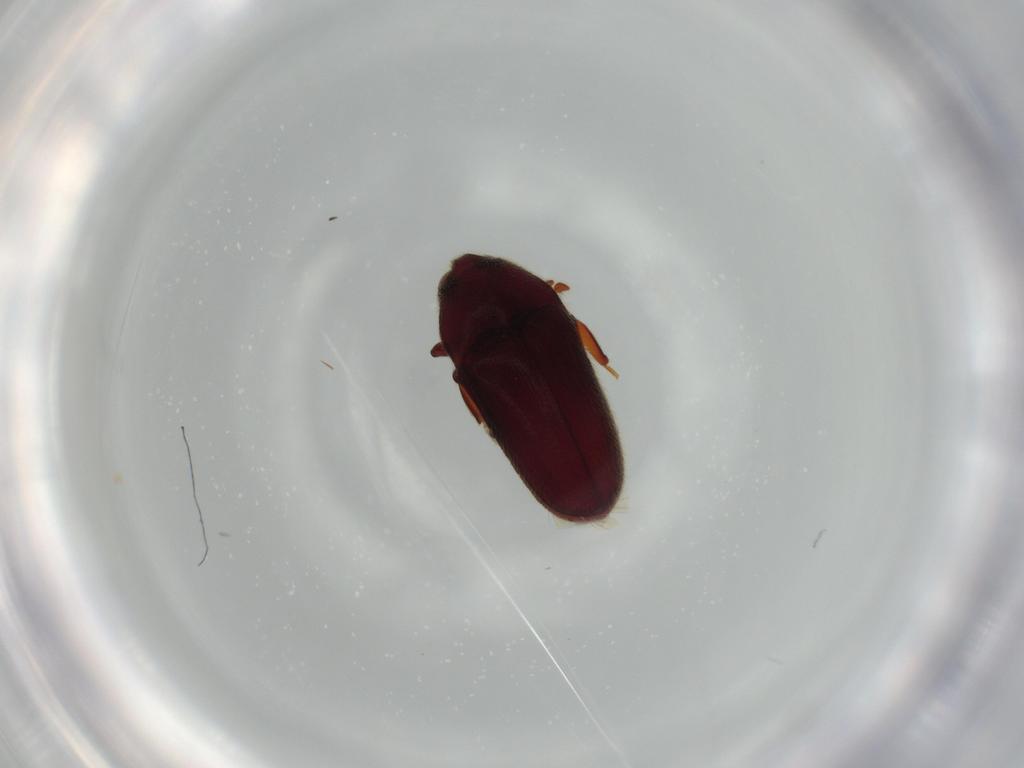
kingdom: Animalia
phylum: Arthropoda
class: Insecta
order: Coleoptera
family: Throscidae
